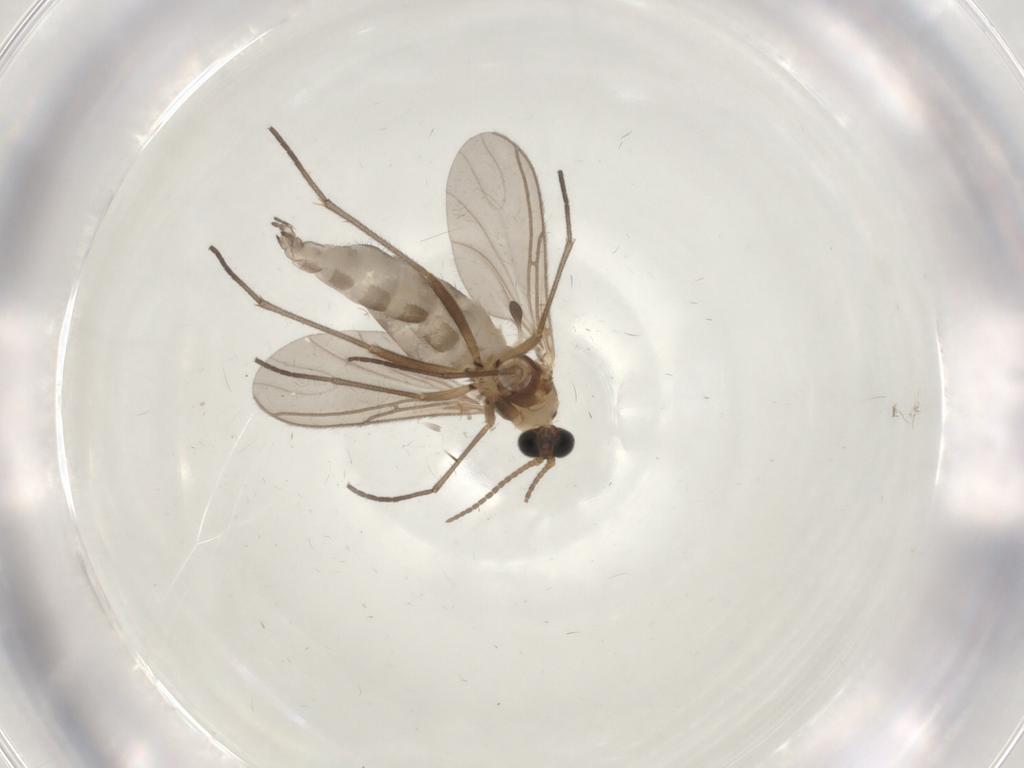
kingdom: Animalia
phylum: Arthropoda
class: Insecta
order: Diptera
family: Sciaridae
